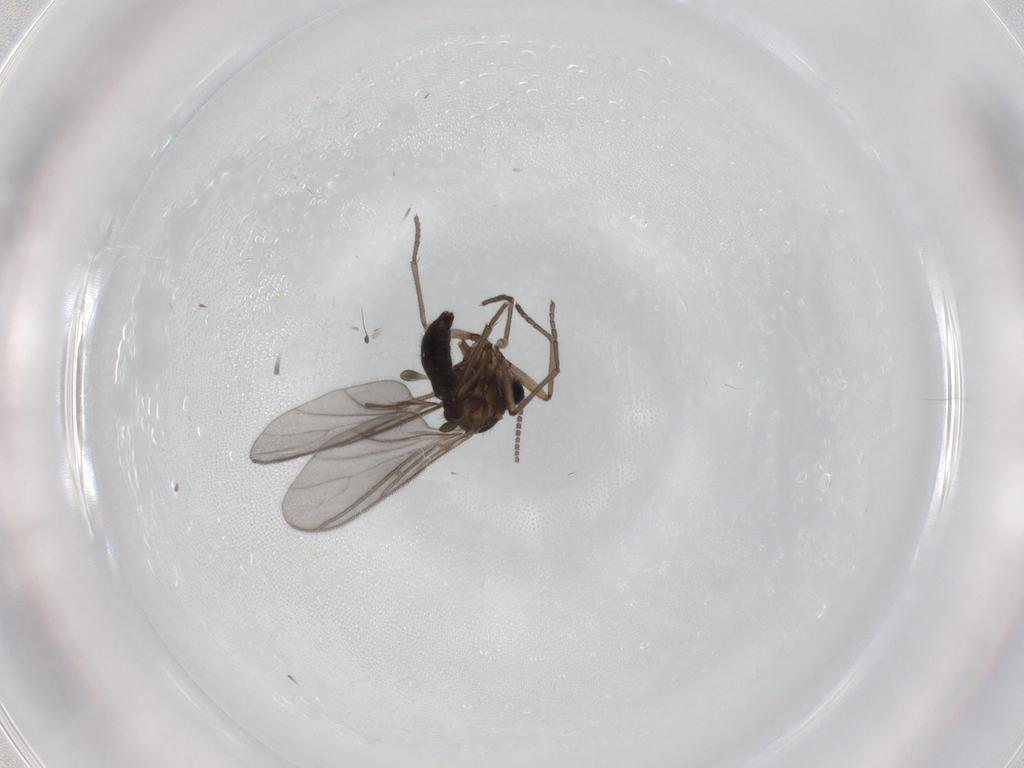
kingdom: Animalia
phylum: Arthropoda
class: Insecta
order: Diptera
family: Sciaridae
